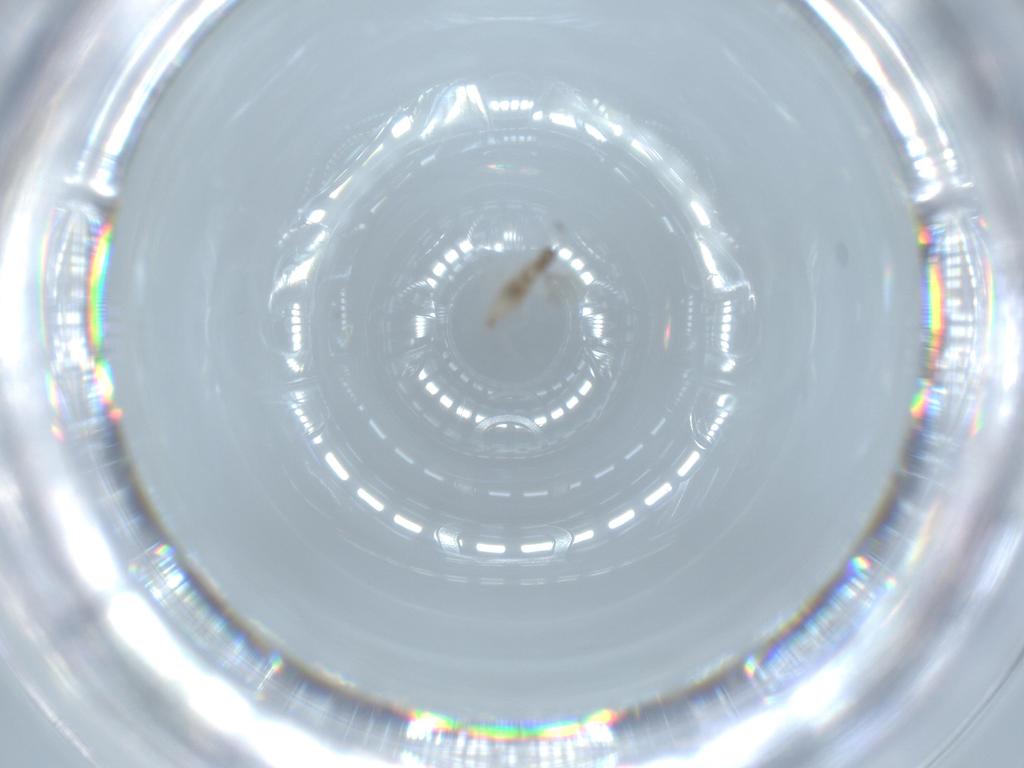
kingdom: Animalia
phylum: Arthropoda
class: Insecta
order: Diptera
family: Cecidomyiidae
